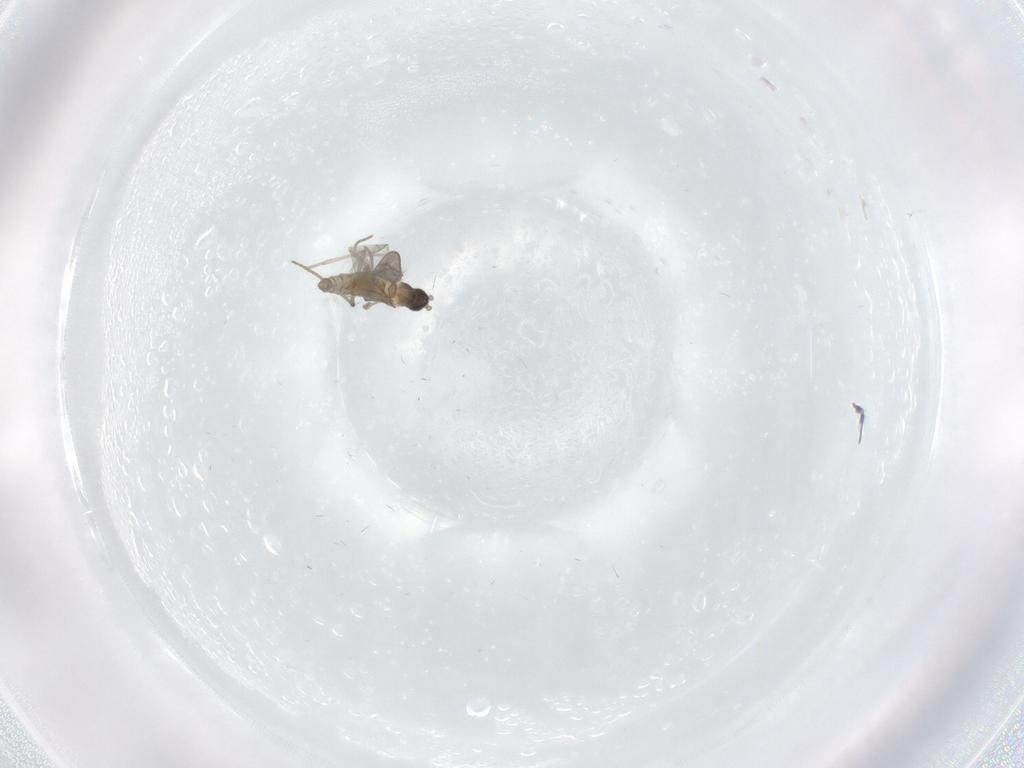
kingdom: Animalia
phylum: Arthropoda
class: Insecta
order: Diptera
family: Cecidomyiidae
